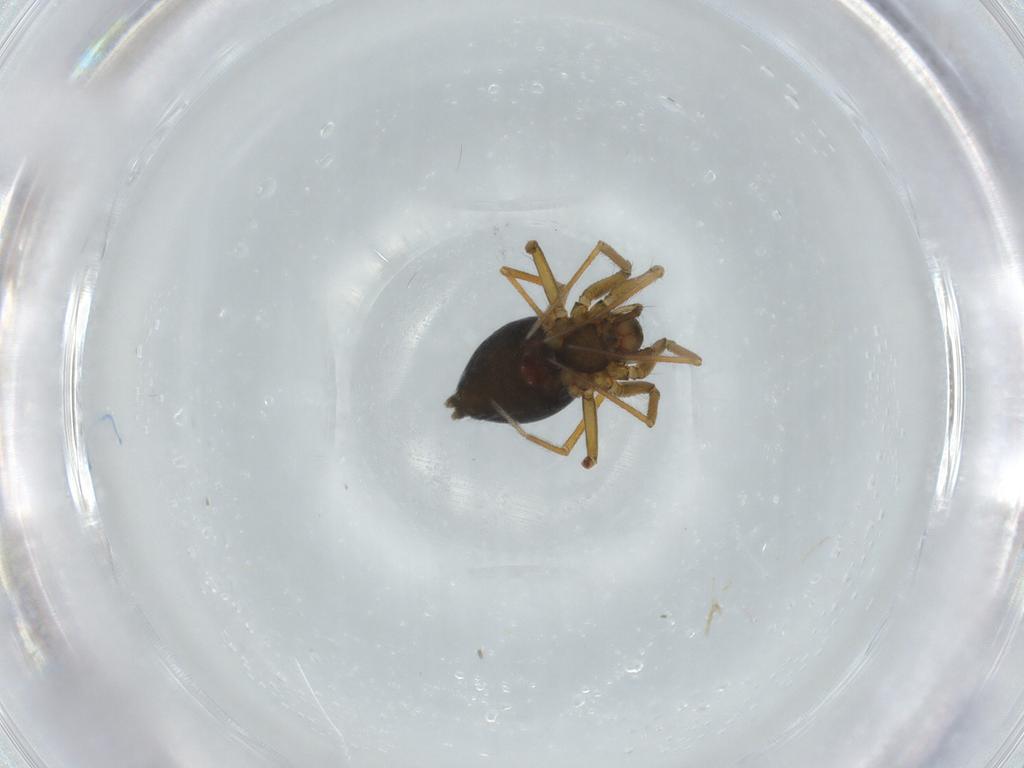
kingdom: Animalia
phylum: Arthropoda
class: Arachnida
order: Araneae
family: Linyphiidae
